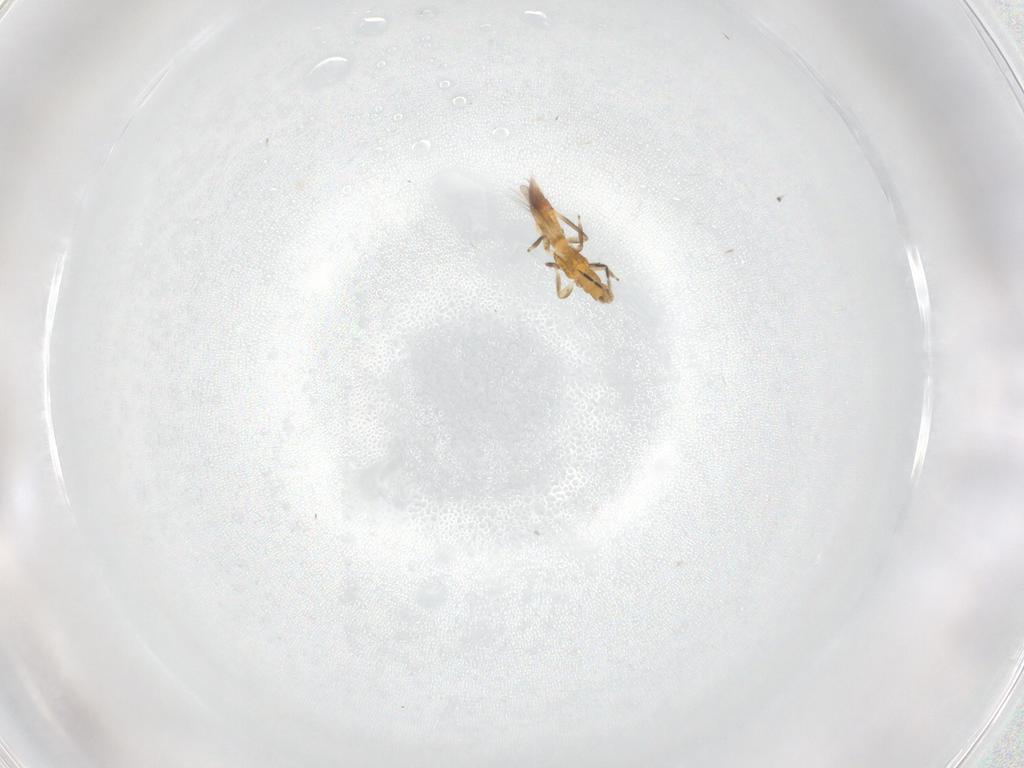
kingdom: Animalia
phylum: Arthropoda
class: Insecta
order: Thysanoptera
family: Aeolothripidae
